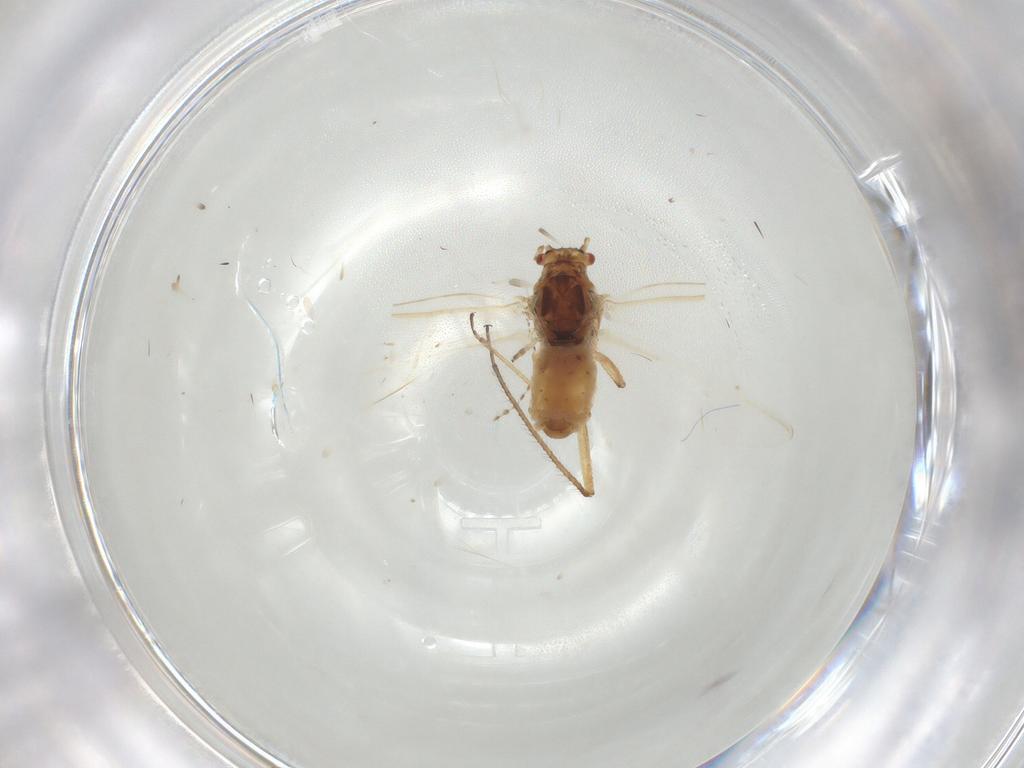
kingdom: Animalia
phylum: Arthropoda
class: Insecta
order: Hemiptera
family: Aphididae
